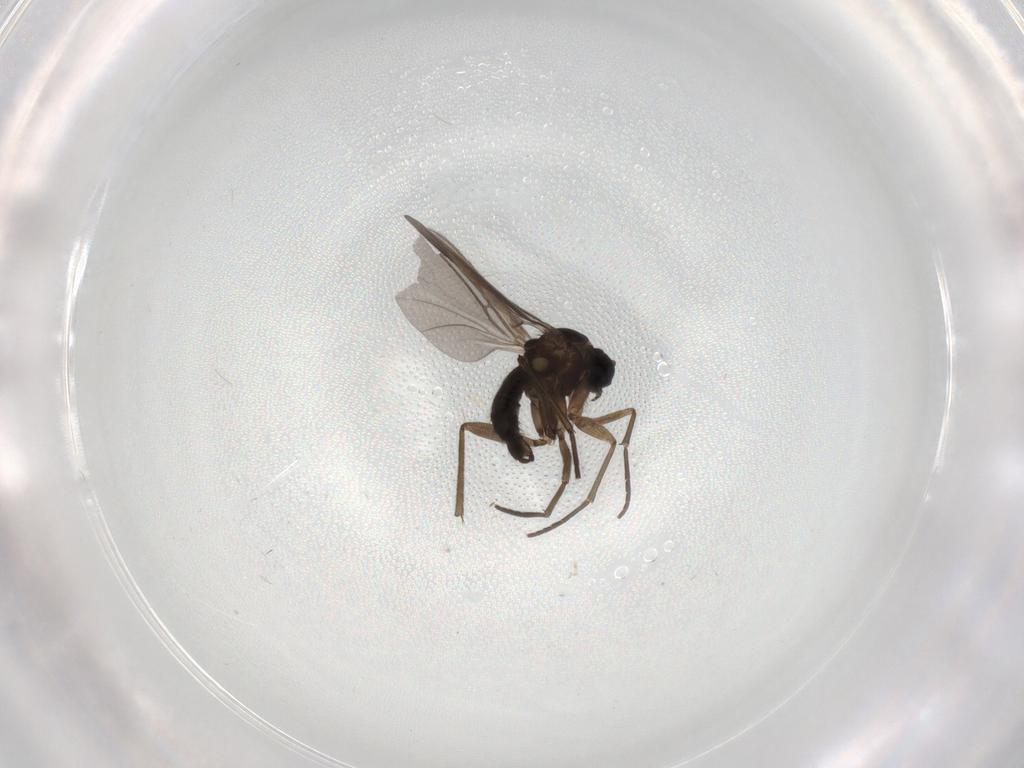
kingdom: Animalia
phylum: Arthropoda
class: Insecta
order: Diptera
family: Sciaridae
